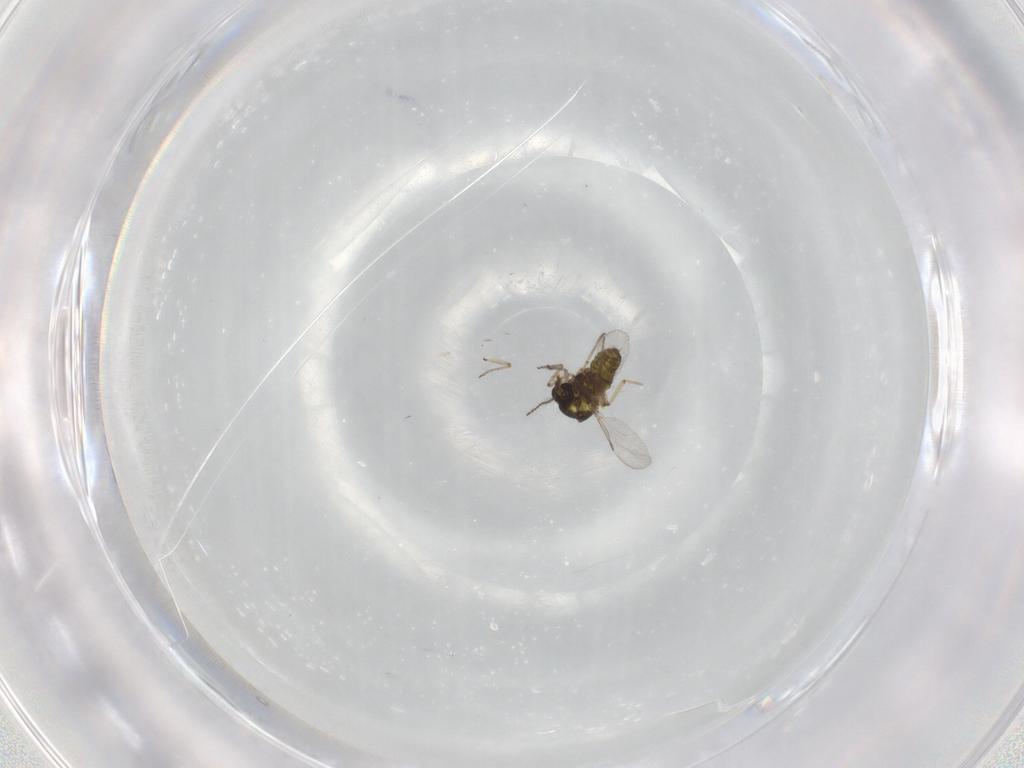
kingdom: Animalia
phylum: Arthropoda
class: Insecta
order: Diptera
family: Ceratopogonidae
